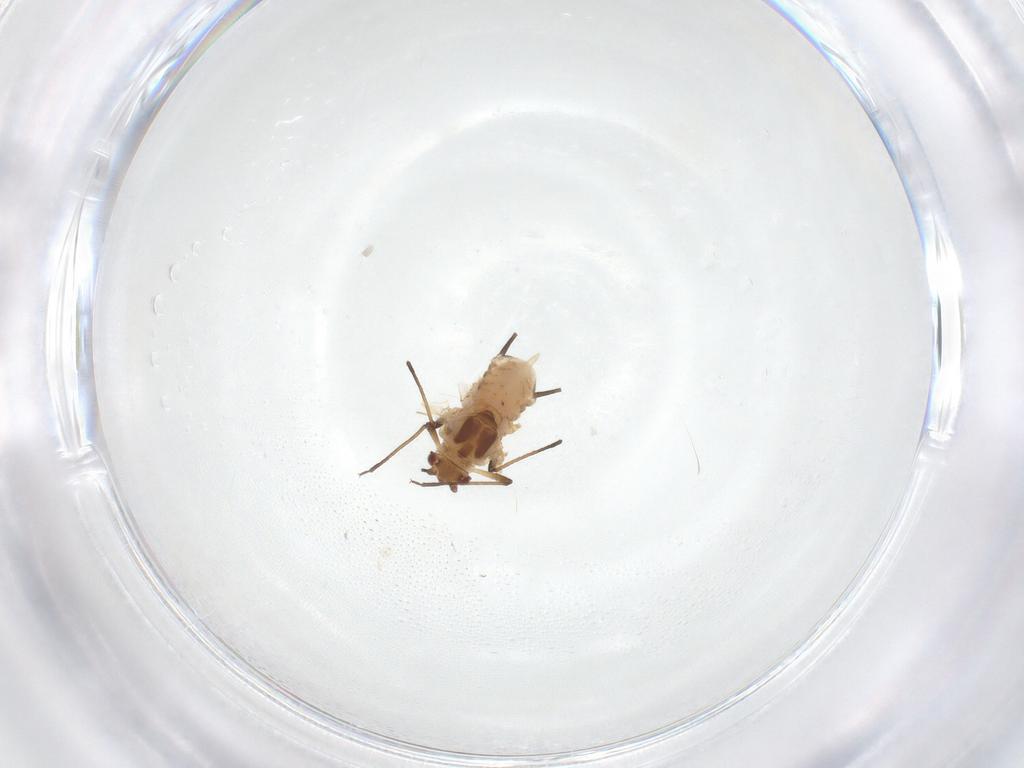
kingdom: Animalia
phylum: Arthropoda
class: Insecta
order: Hemiptera
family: Aphididae
